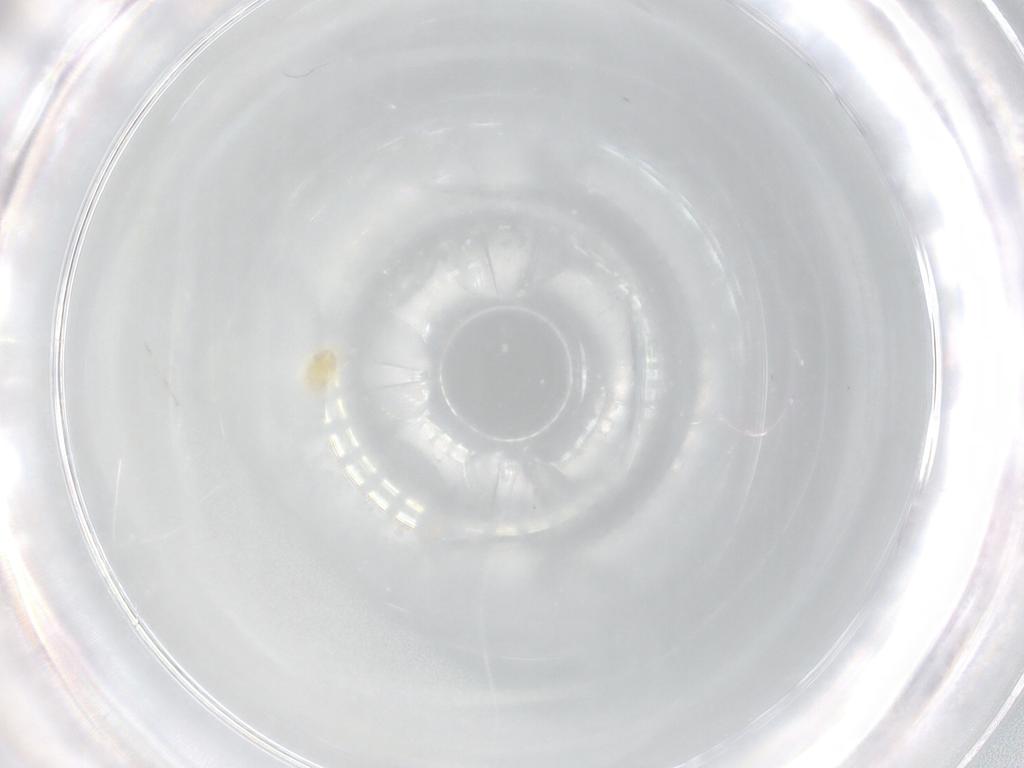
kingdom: Animalia
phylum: Arthropoda
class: Arachnida
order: Trombidiformes
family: Eupodidae
